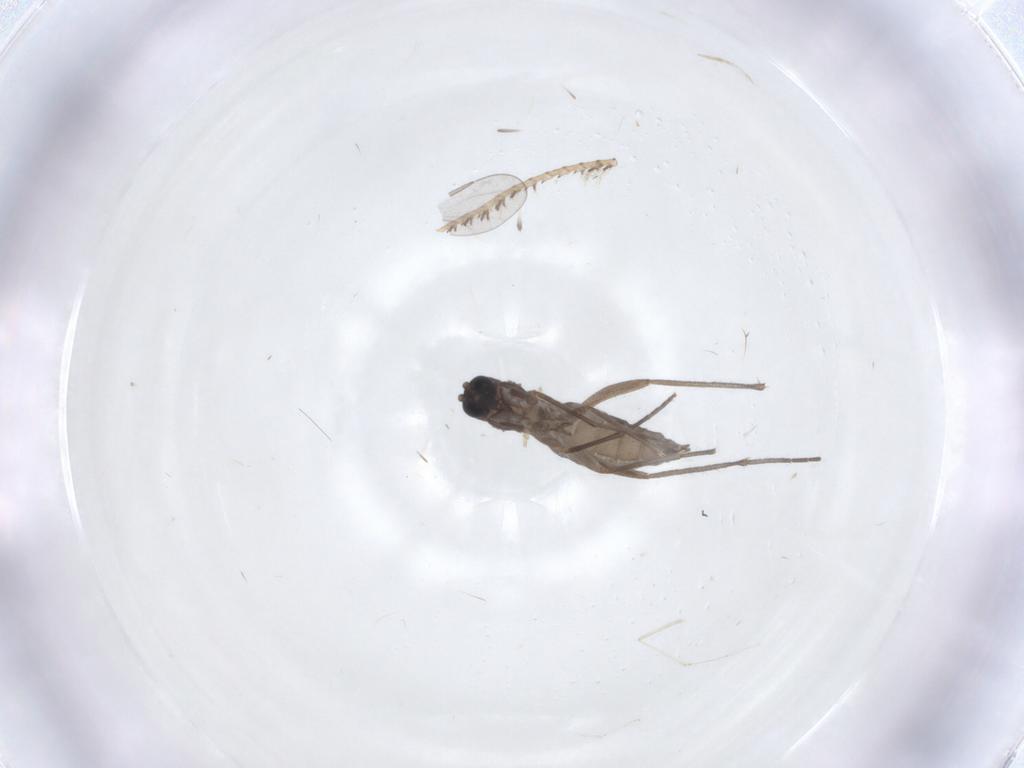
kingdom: Animalia
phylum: Arthropoda
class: Insecta
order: Diptera
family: Sciaridae
